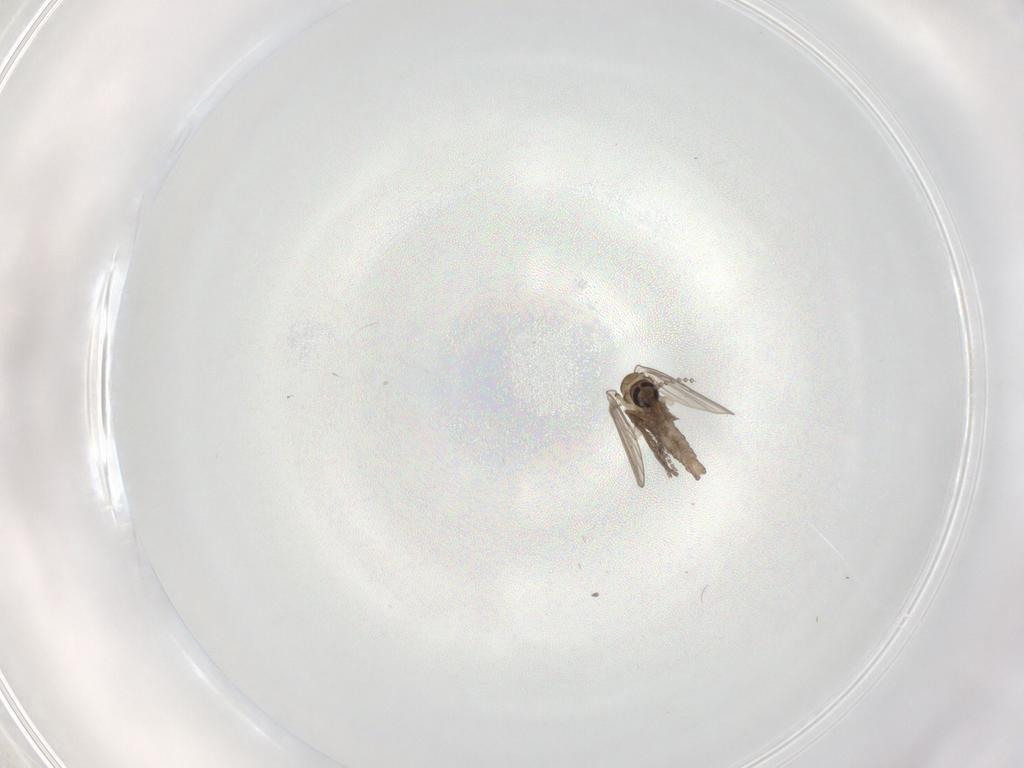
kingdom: Animalia
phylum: Arthropoda
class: Insecta
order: Diptera
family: Psychodidae
